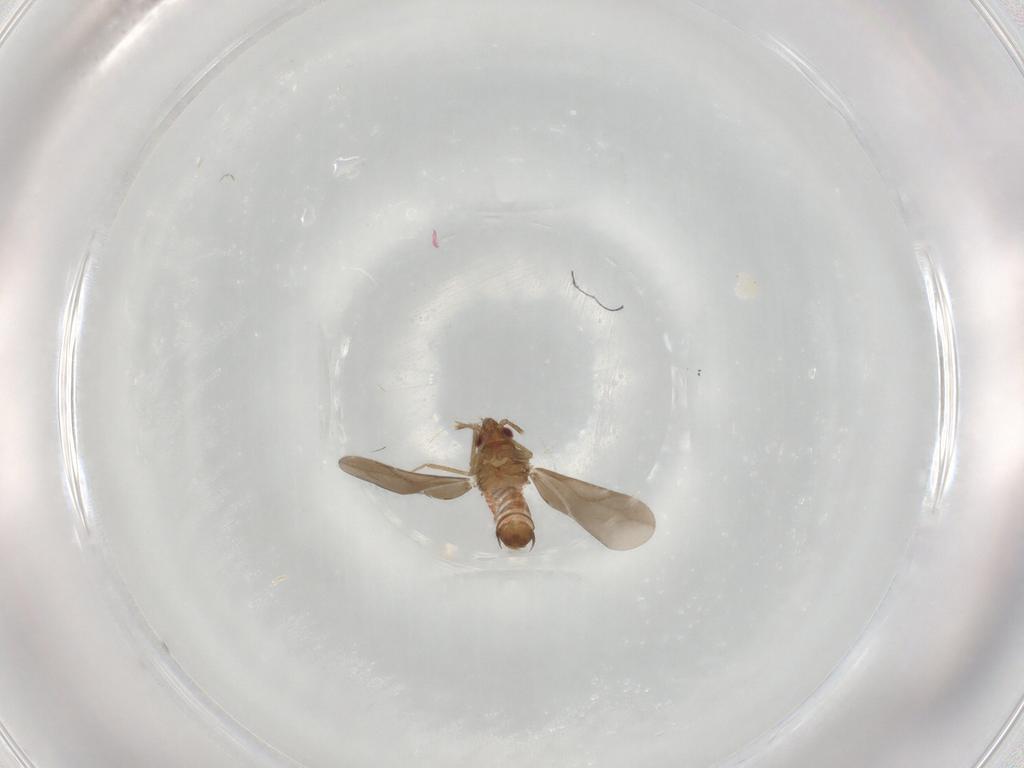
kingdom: Animalia
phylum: Arthropoda
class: Insecta
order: Hemiptera
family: Ceratocombidae
